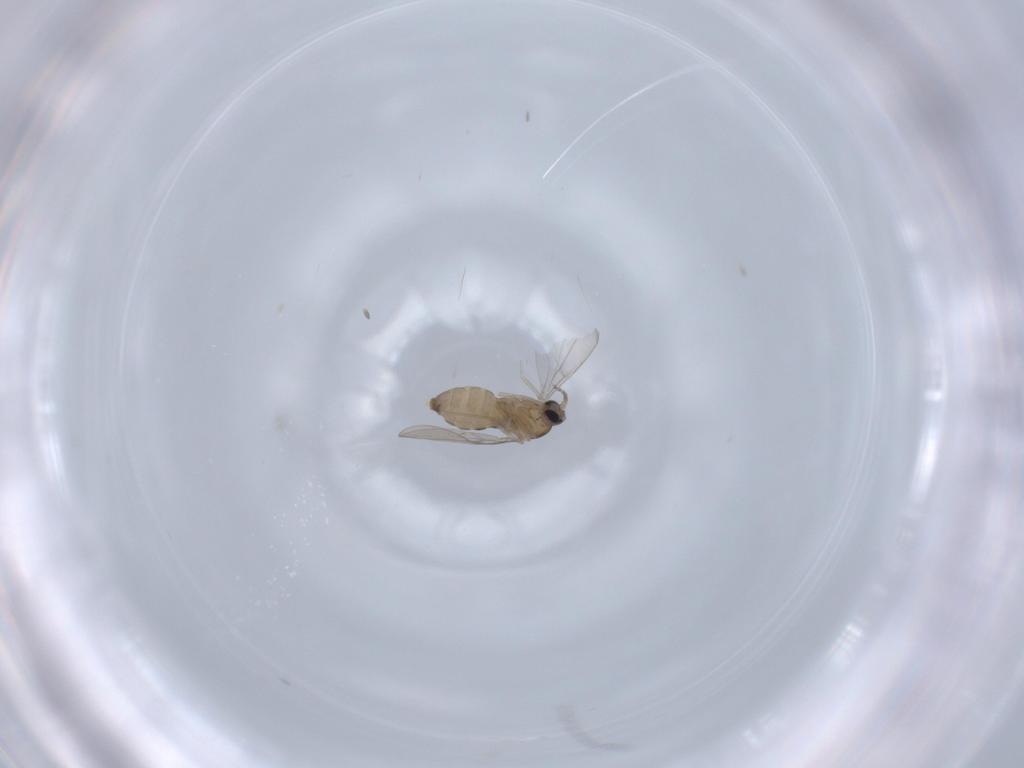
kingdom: Animalia
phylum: Arthropoda
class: Insecta
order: Diptera
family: Cecidomyiidae
